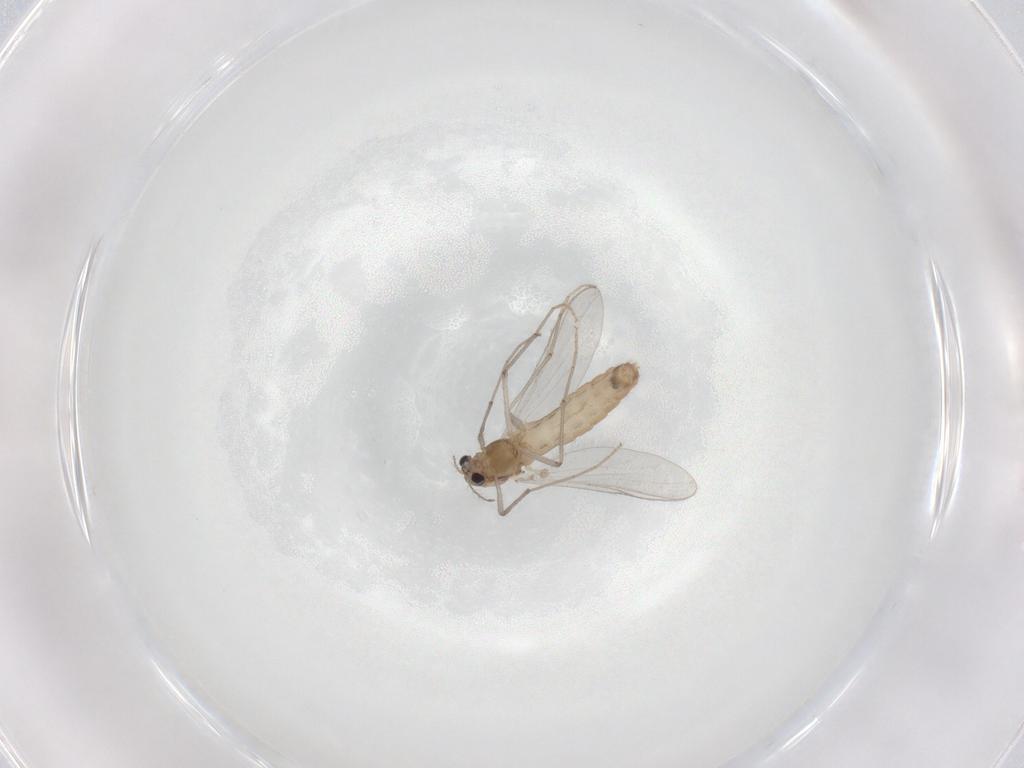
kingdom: Animalia
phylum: Arthropoda
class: Insecta
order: Diptera
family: Chironomidae
